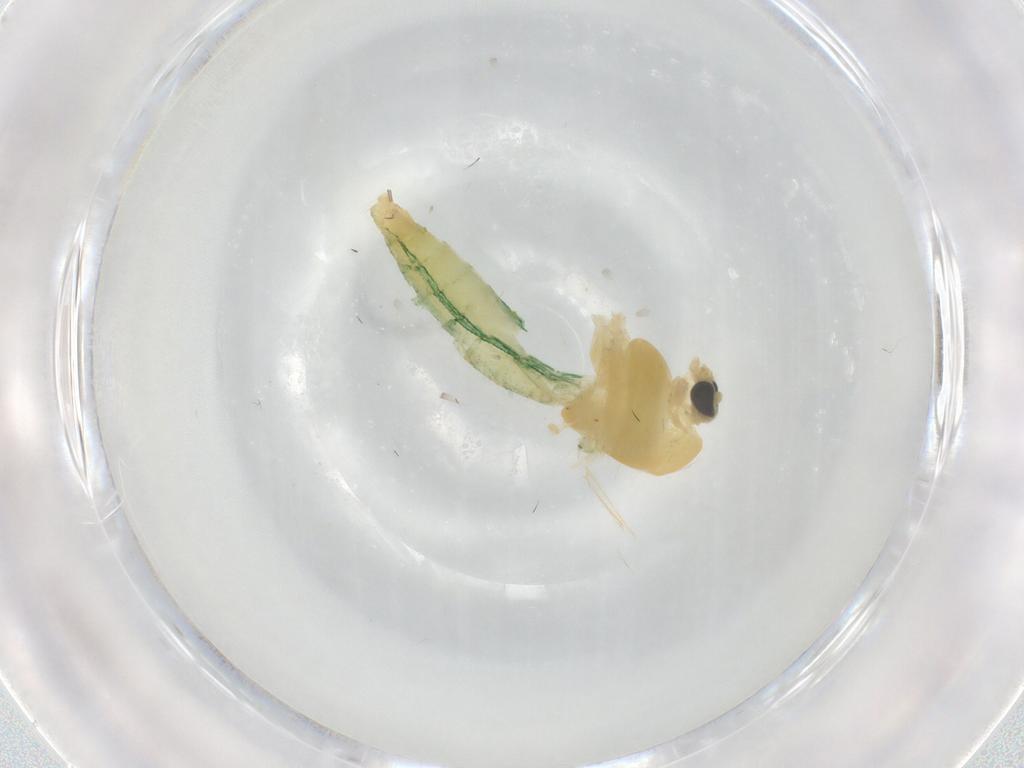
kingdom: Animalia
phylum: Arthropoda
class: Insecta
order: Diptera
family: Chironomidae
